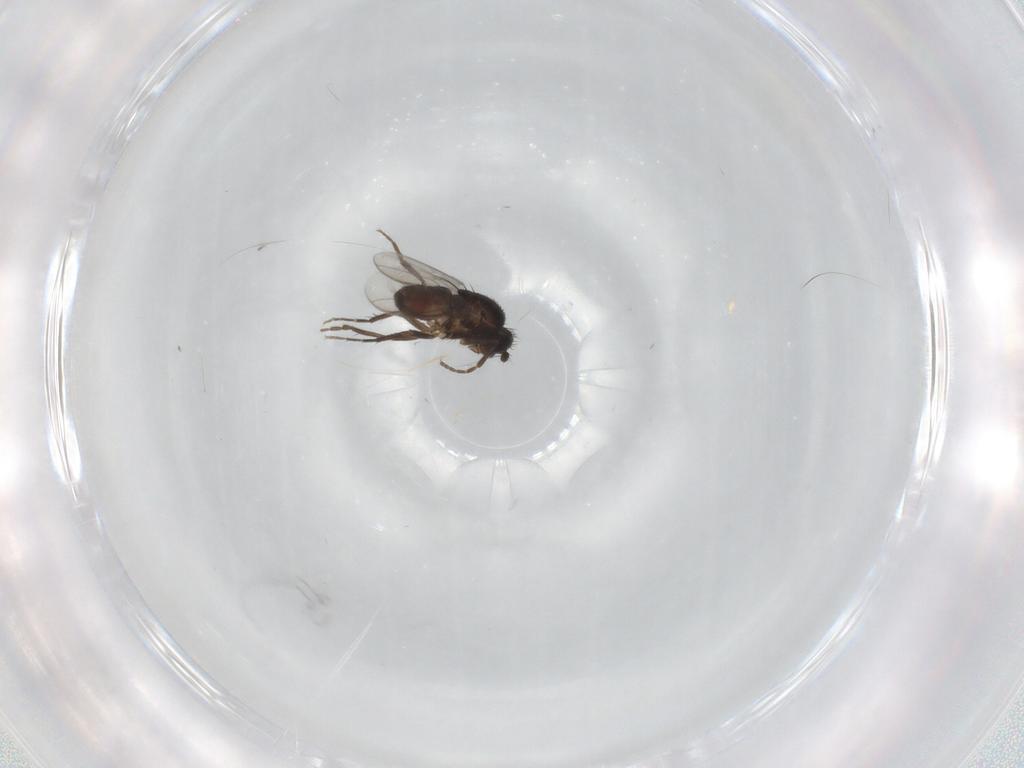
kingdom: Animalia
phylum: Arthropoda
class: Insecta
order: Diptera
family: Sphaeroceridae
